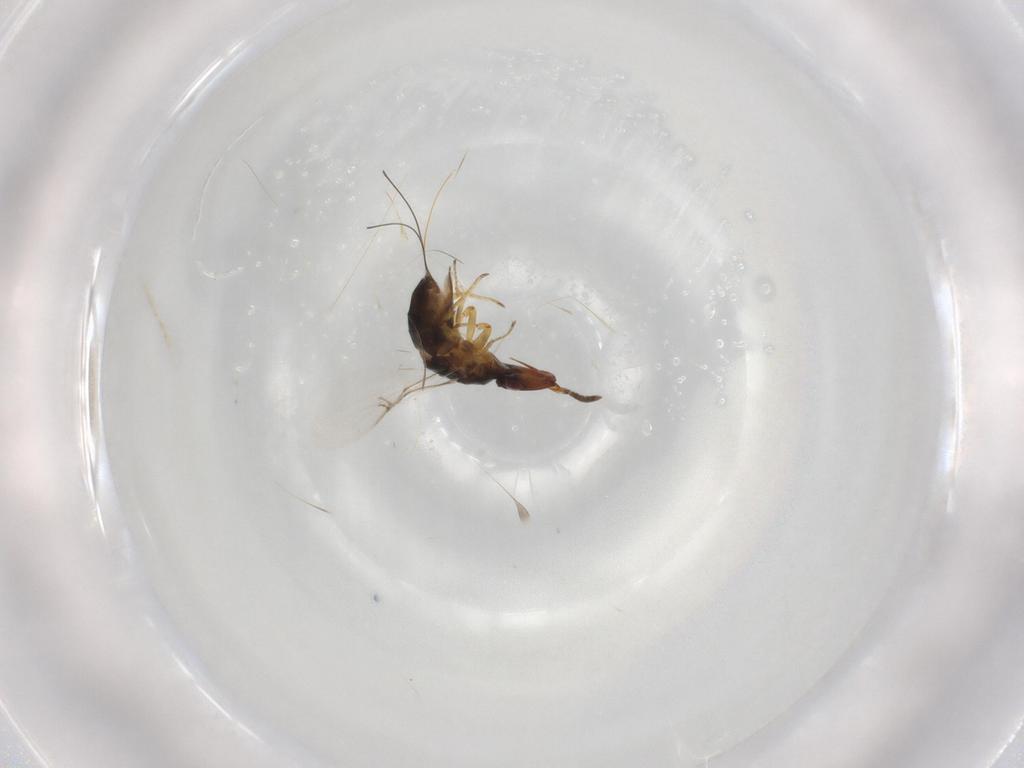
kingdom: Animalia
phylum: Arthropoda
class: Insecta
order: Hymenoptera
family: Agaonidae
